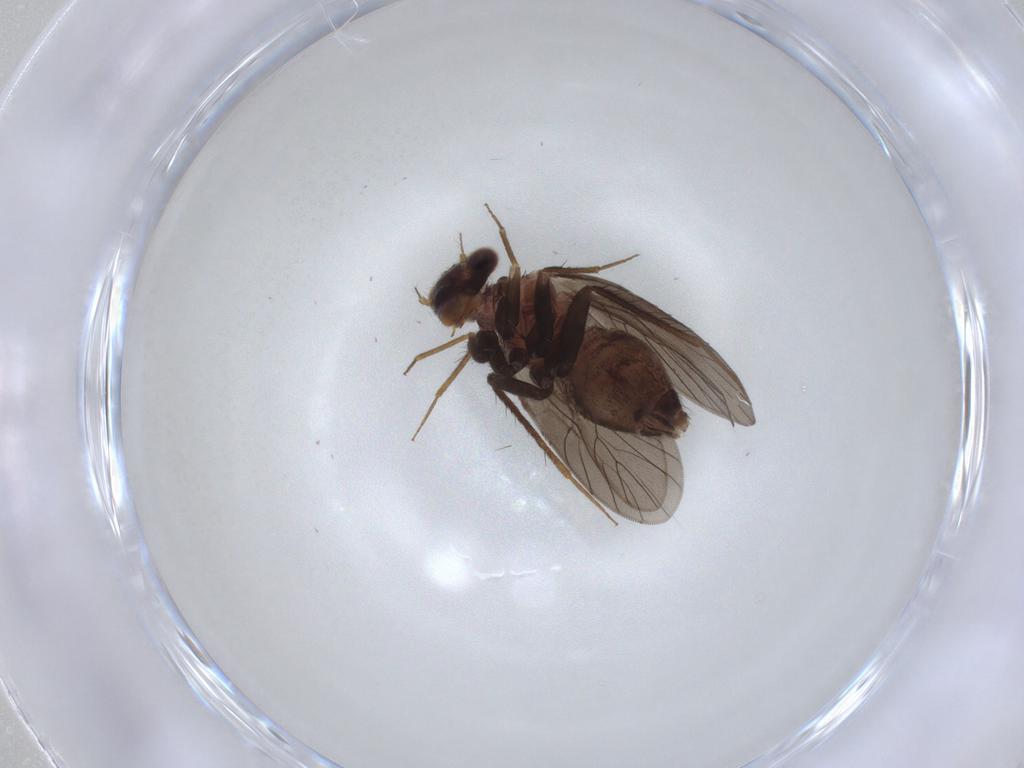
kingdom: Animalia
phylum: Arthropoda
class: Insecta
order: Psocodea
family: Lepidopsocidae
